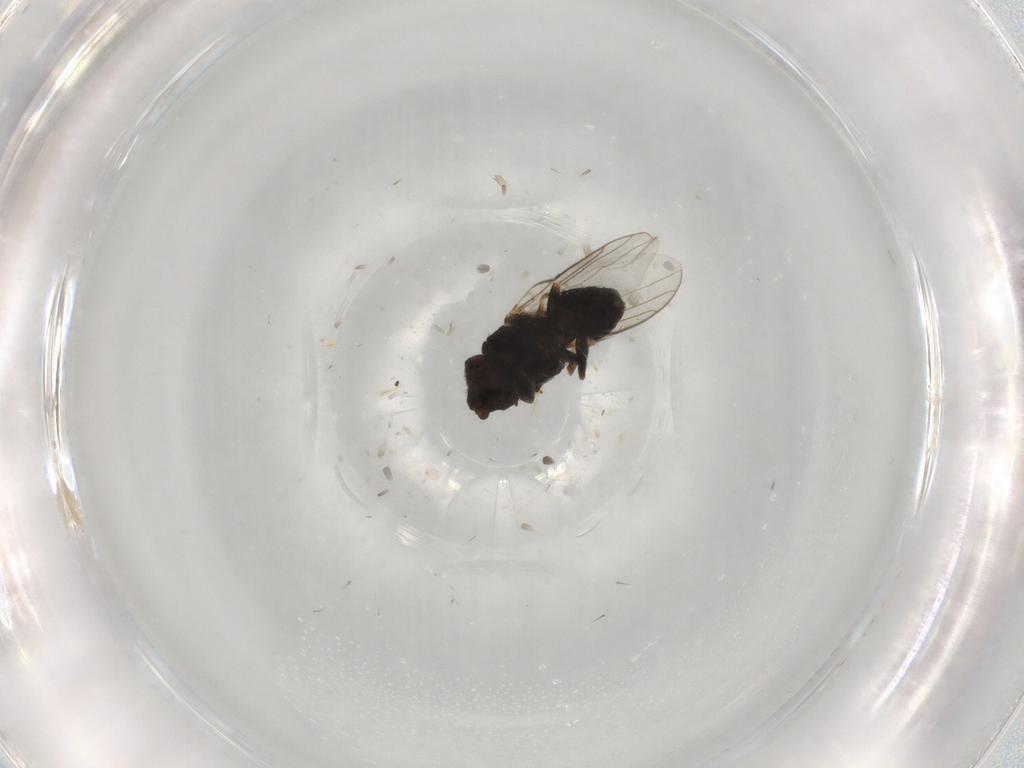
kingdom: Animalia
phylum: Arthropoda
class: Insecta
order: Diptera
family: Chloropidae
